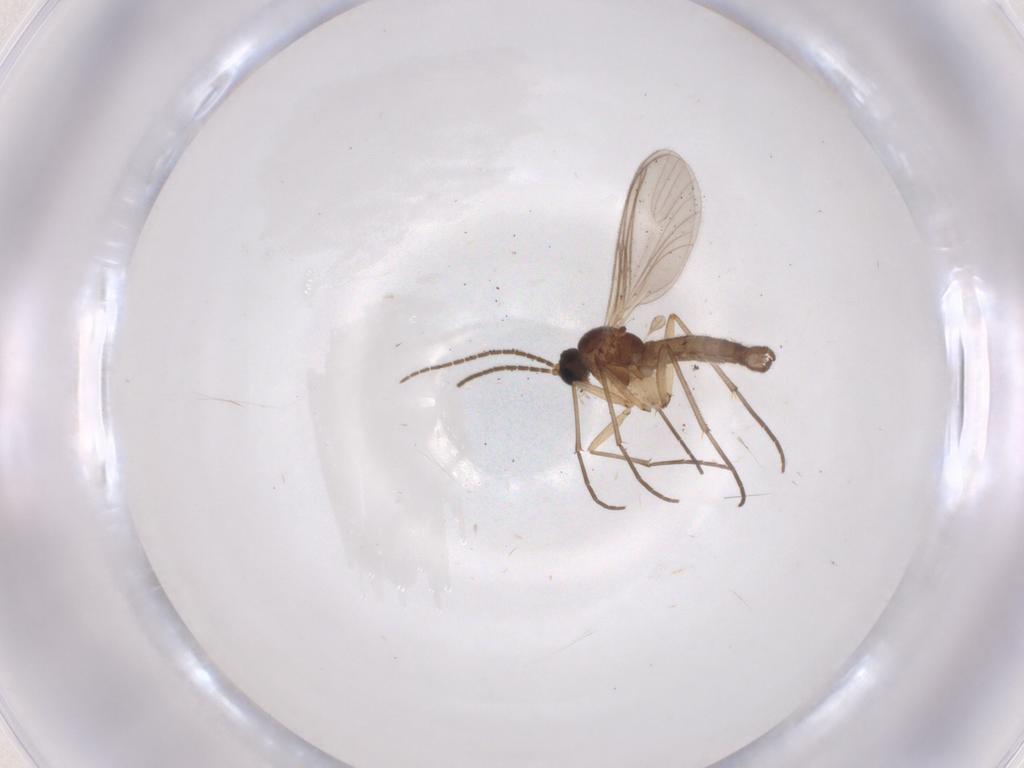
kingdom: Animalia
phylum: Arthropoda
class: Insecta
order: Diptera
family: Sciaridae
